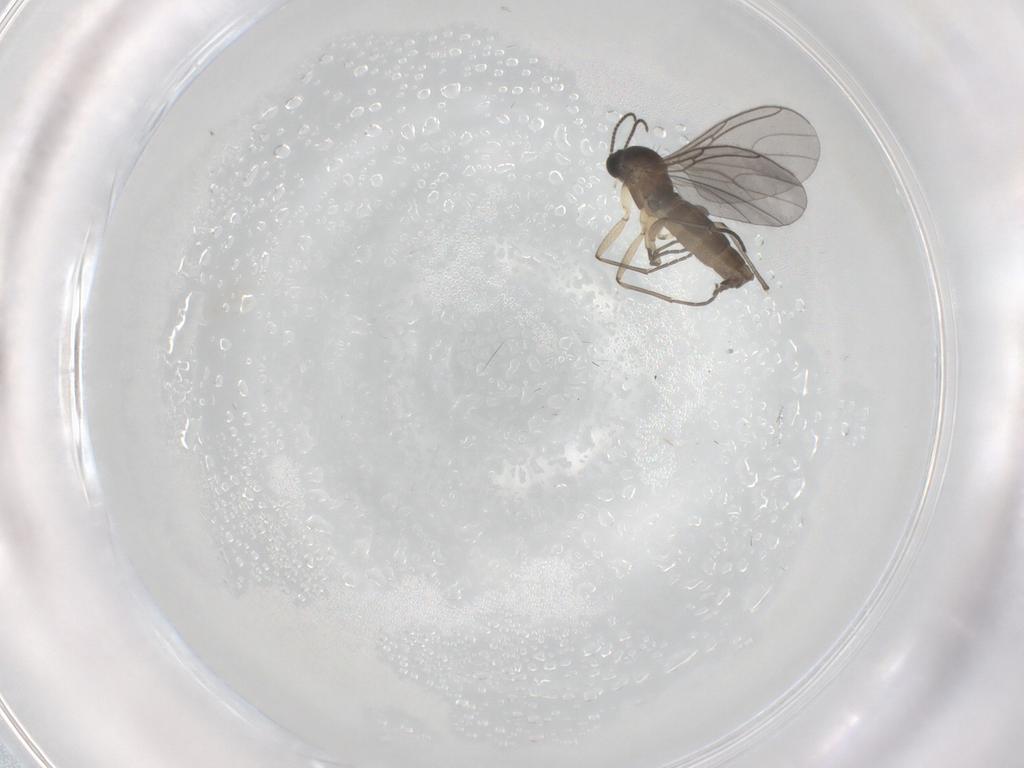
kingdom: Animalia
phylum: Arthropoda
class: Insecta
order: Diptera
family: Sciaridae
